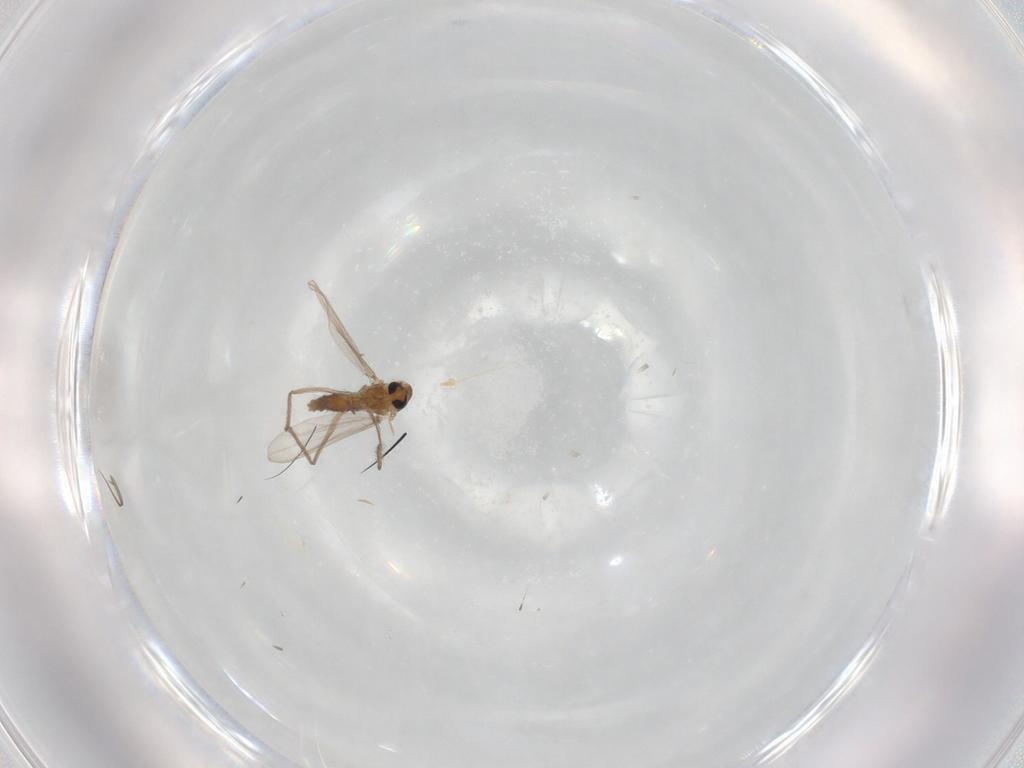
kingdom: Animalia
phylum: Arthropoda
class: Insecta
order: Diptera
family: Chironomidae
